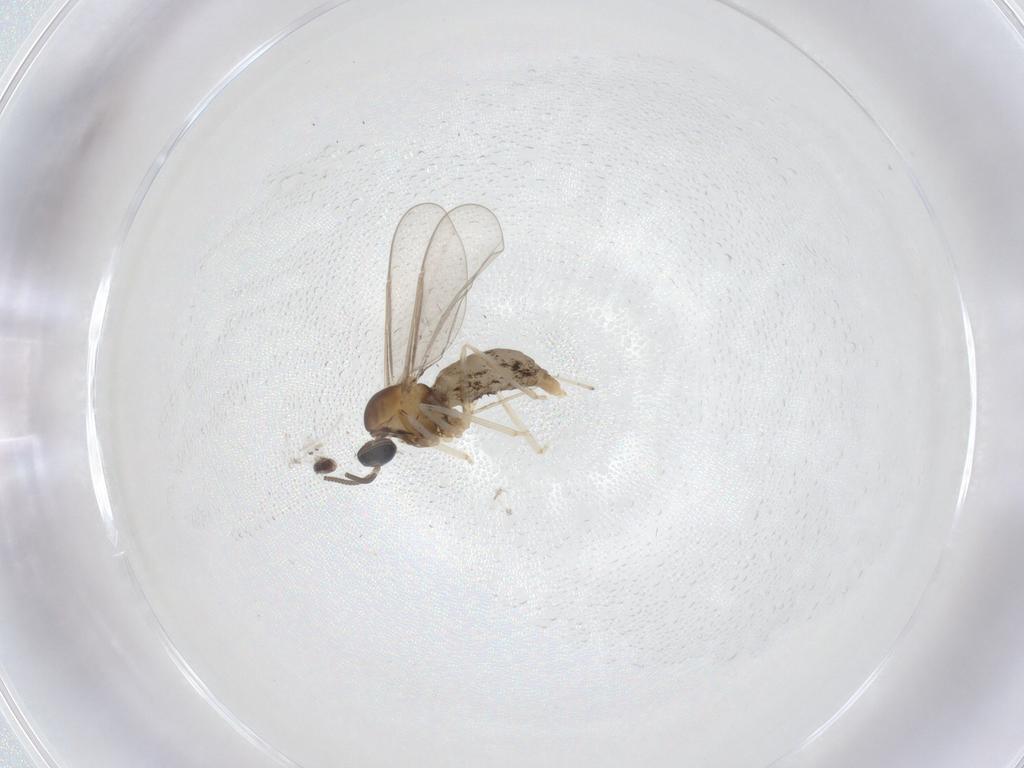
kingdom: Animalia
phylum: Arthropoda
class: Insecta
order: Diptera
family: Cecidomyiidae
